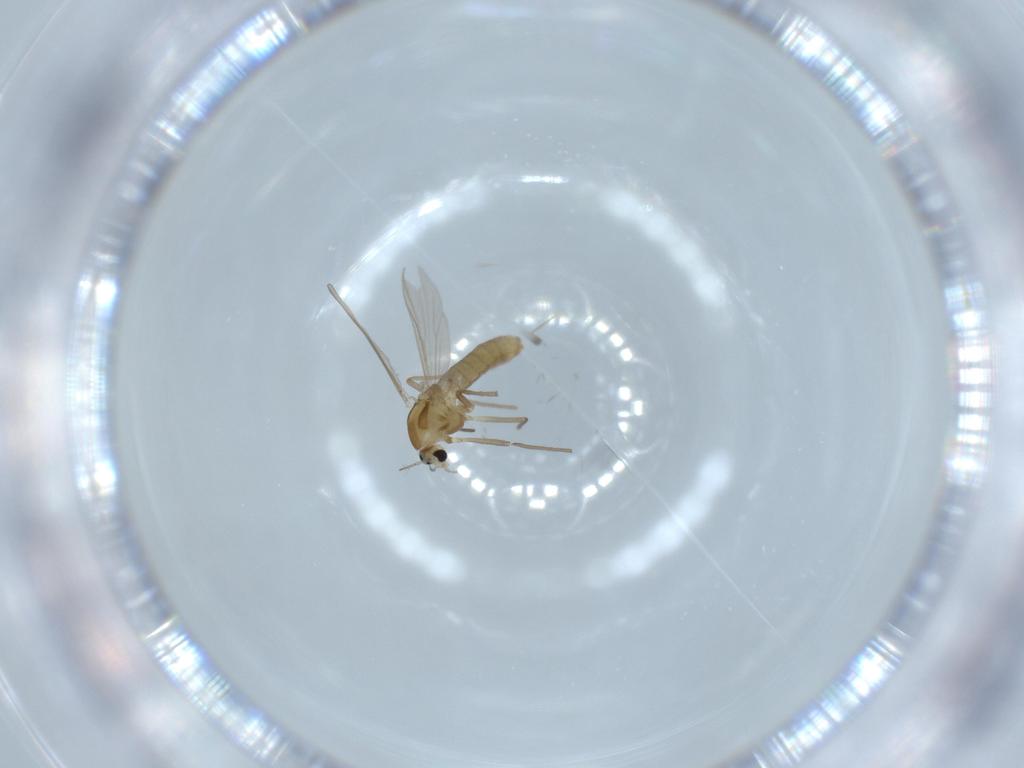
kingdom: Animalia
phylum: Arthropoda
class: Insecta
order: Diptera
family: Chironomidae
